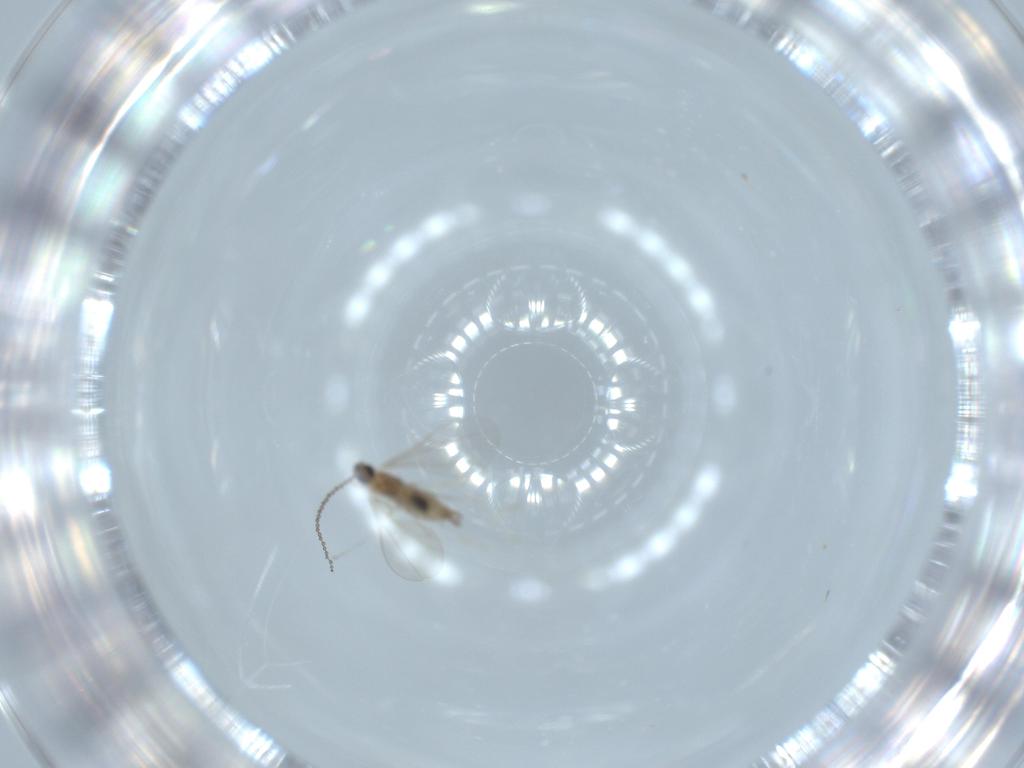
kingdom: Animalia
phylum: Arthropoda
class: Insecta
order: Diptera
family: Cecidomyiidae
